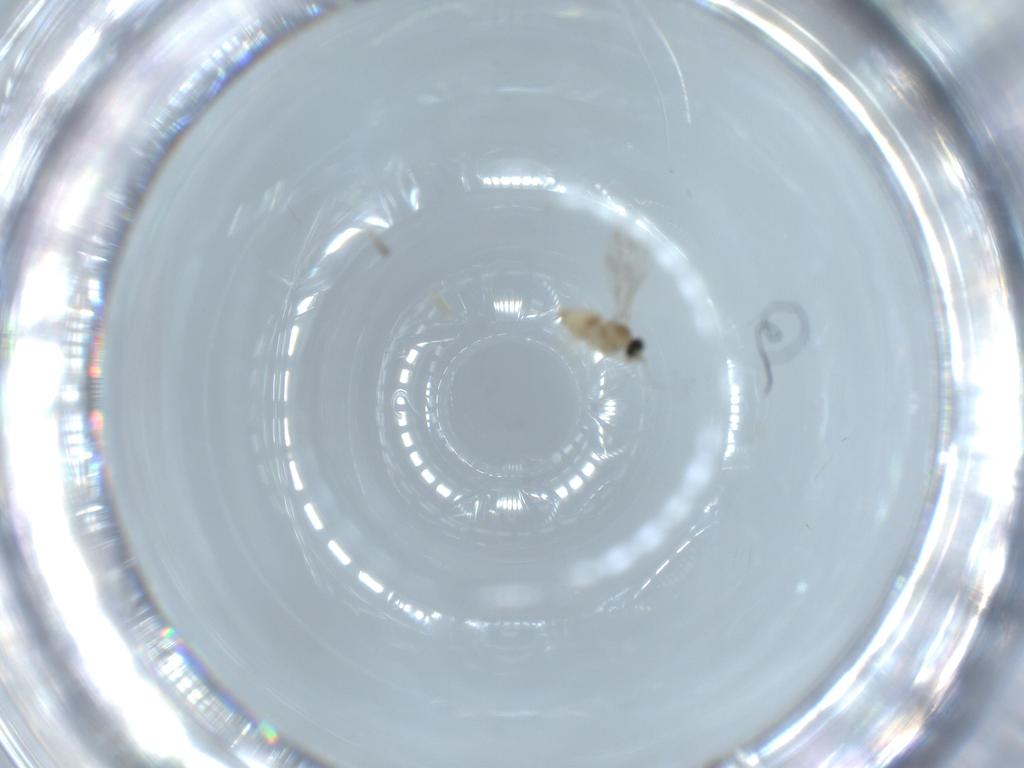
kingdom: Animalia
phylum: Arthropoda
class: Insecta
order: Diptera
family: Cecidomyiidae
